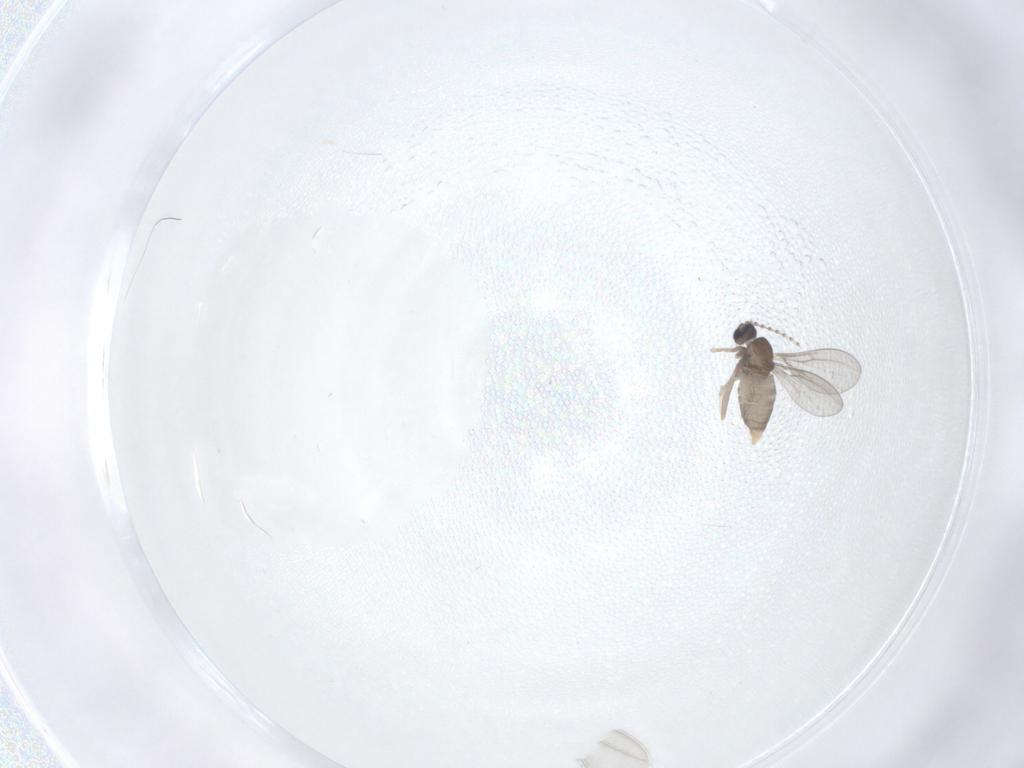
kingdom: Animalia
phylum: Arthropoda
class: Insecta
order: Diptera
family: Cecidomyiidae
